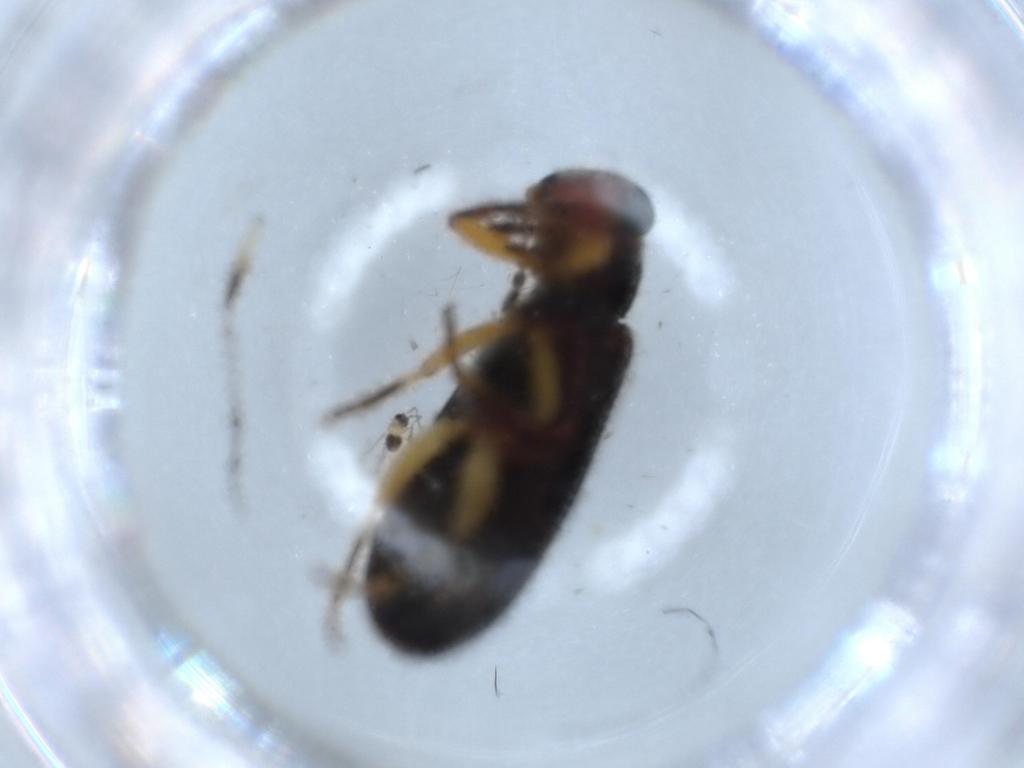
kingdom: Animalia
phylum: Arthropoda
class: Insecta
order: Coleoptera
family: Cleridae
